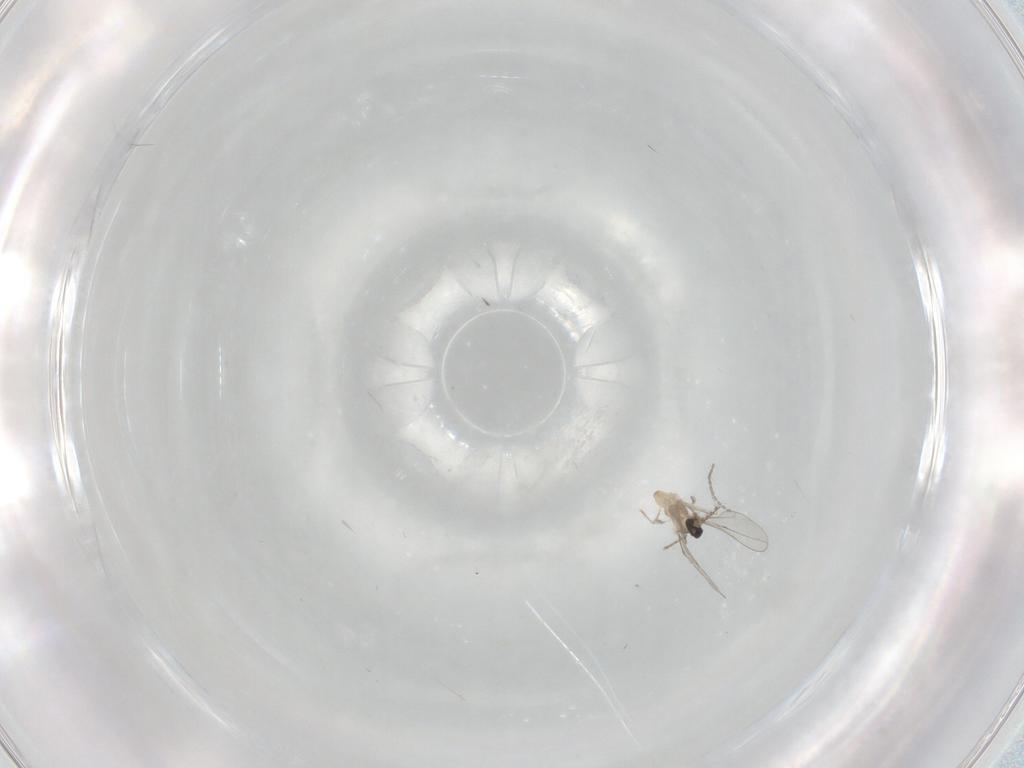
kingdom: Animalia
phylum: Arthropoda
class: Insecta
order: Diptera
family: Cecidomyiidae
